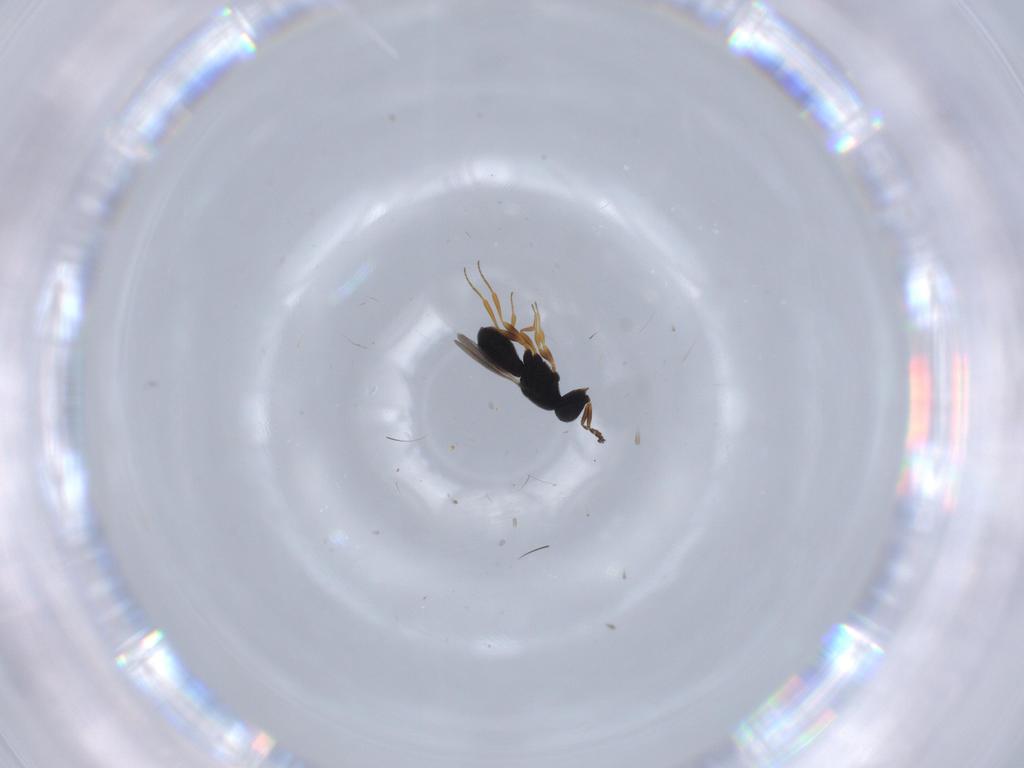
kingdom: Animalia
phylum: Arthropoda
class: Insecta
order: Hymenoptera
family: Scelionidae
